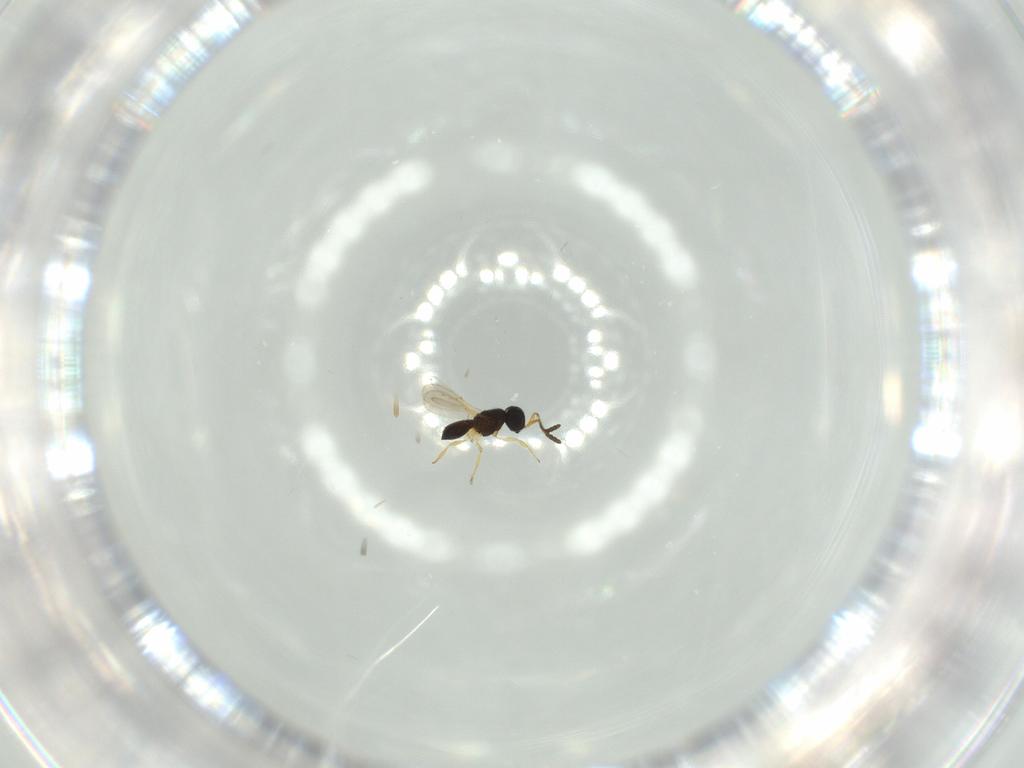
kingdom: Animalia
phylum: Arthropoda
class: Insecta
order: Hymenoptera
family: Scelionidae
